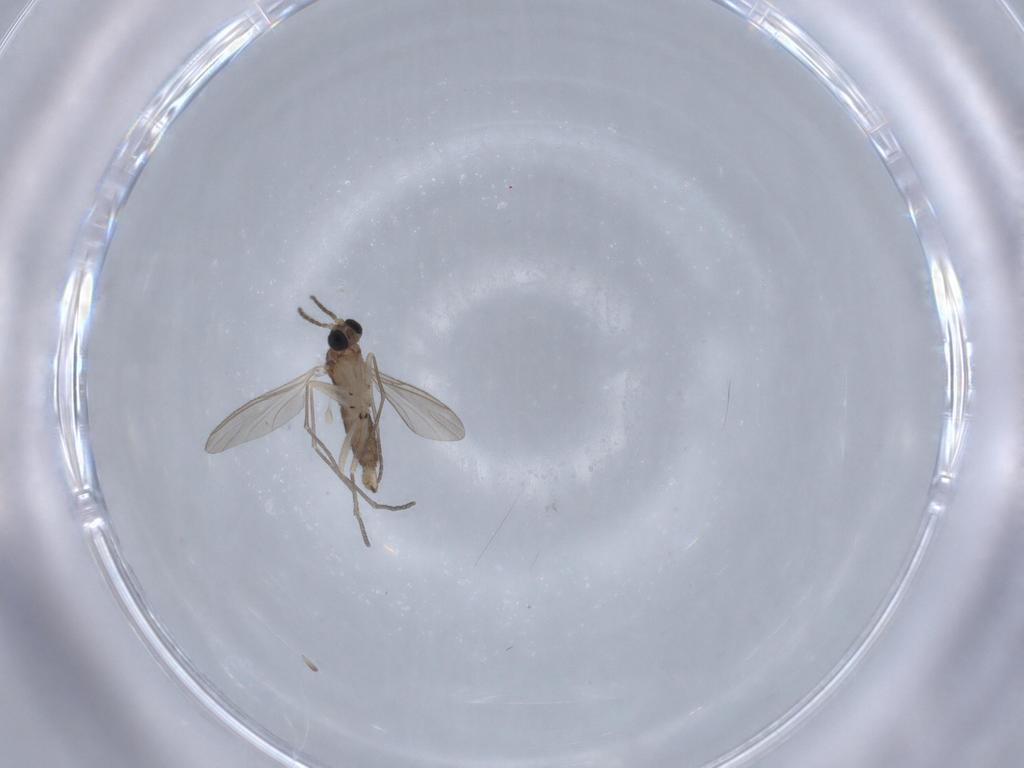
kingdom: Animalia
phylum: Arthropoda
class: Insecta
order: Diptera
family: Sciaridae
